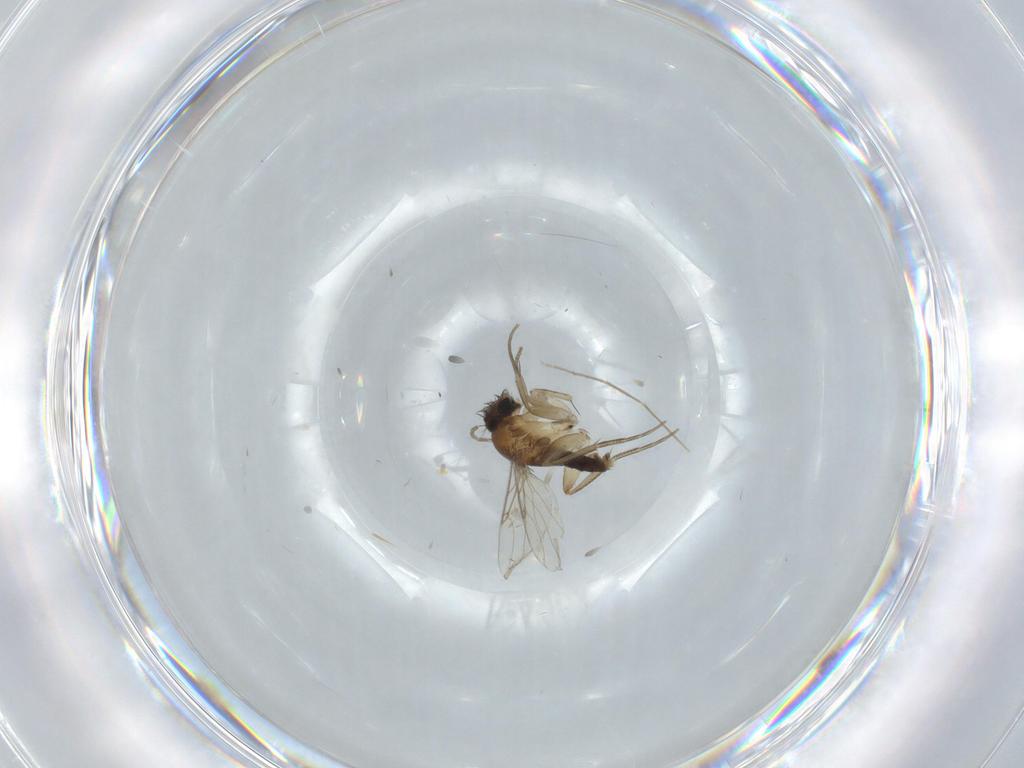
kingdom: Animalia
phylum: Arthropoda
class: Insecta
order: Diptera
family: Phoridae
